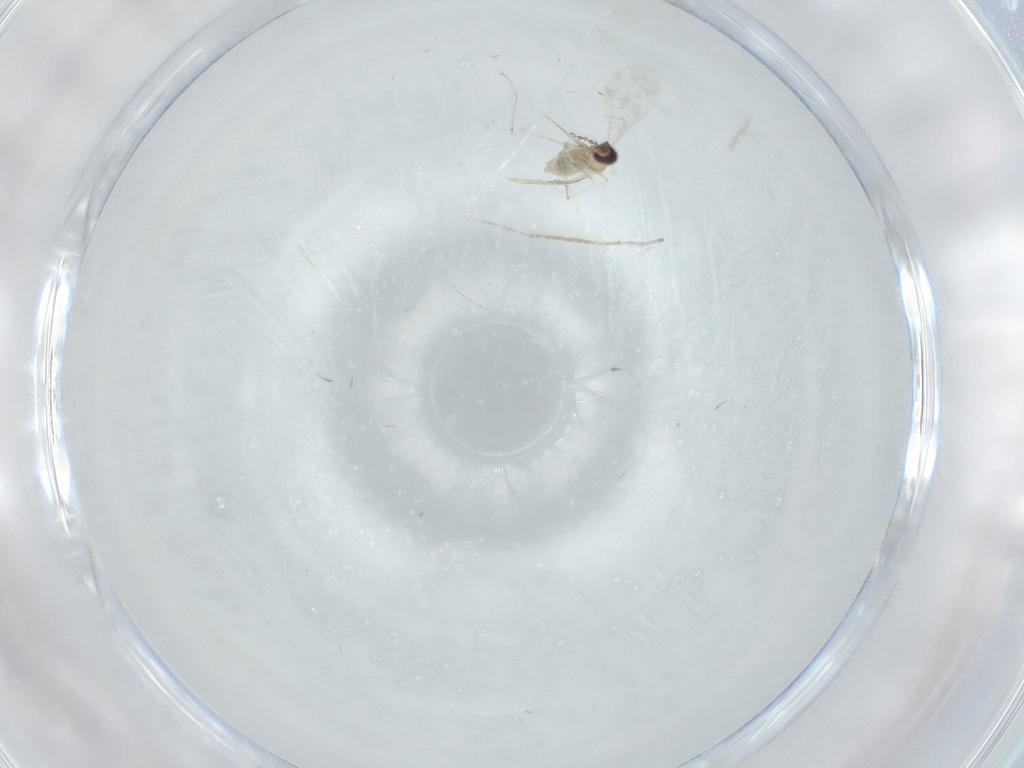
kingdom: Animalia
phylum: Arthropoda
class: Insecta
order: Diptera
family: Cecidomyiidae
